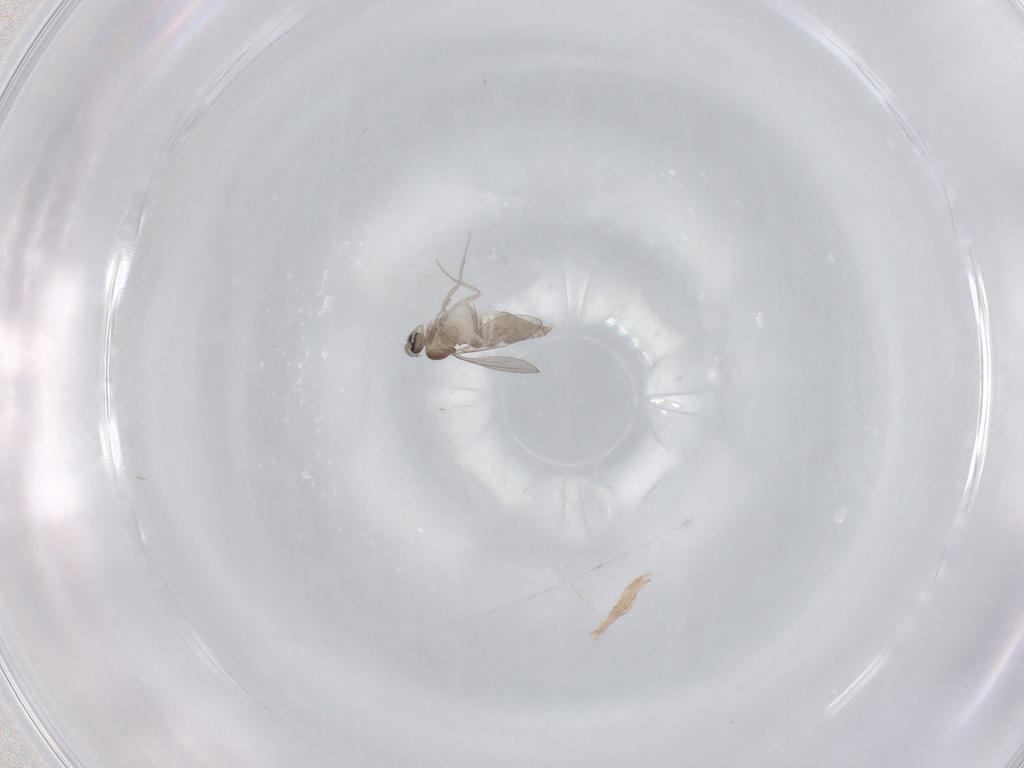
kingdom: Animalia
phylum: Arthropoda
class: Insecta
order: Diptera
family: Cecidomyiidae
